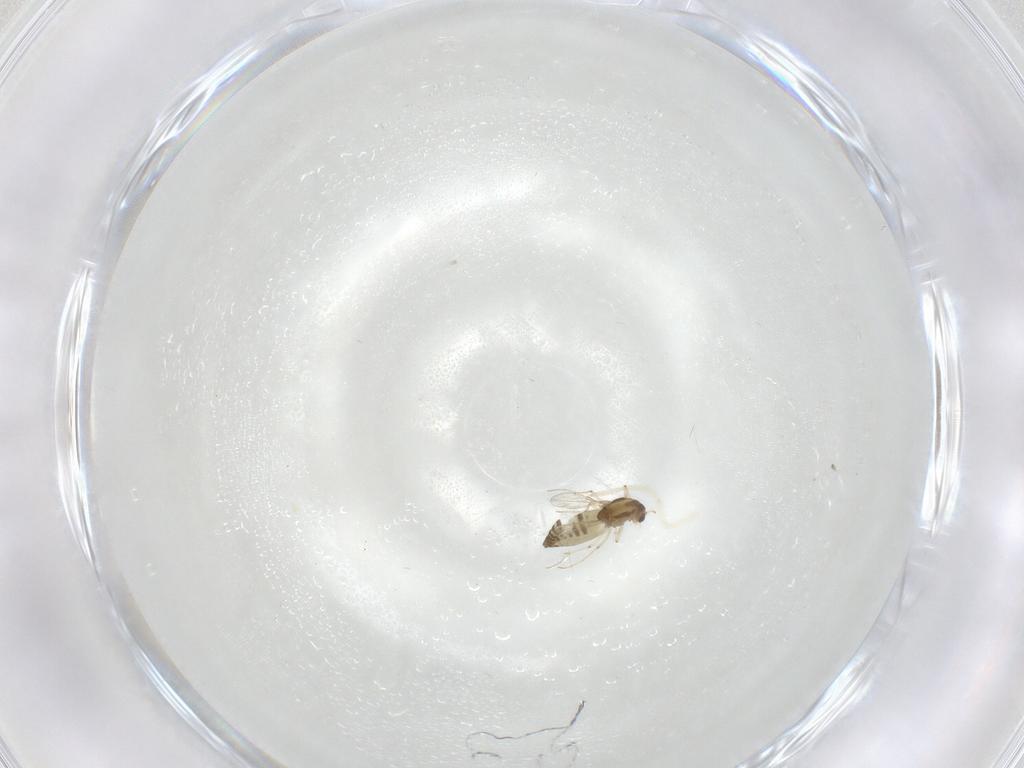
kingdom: Animalia
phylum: Arthropoda
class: Insecta
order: Diptera
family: Chironomidae
